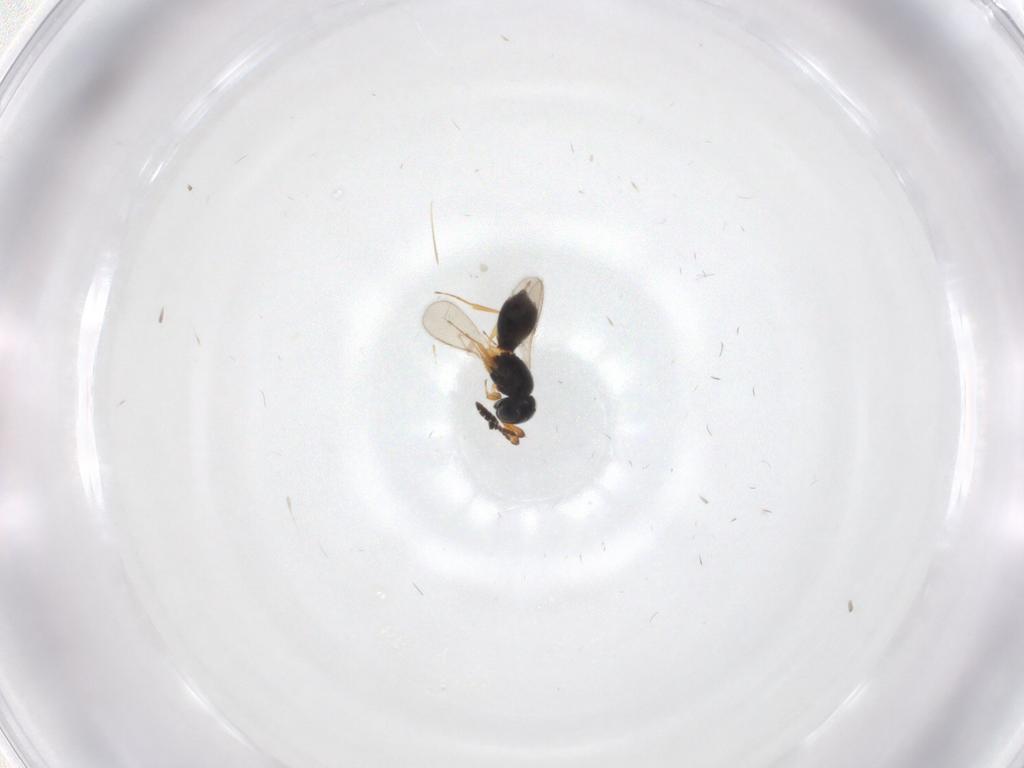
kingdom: Animalia
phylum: Arthropoda
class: Insecta
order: Hymenoptera
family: Scelionidae
